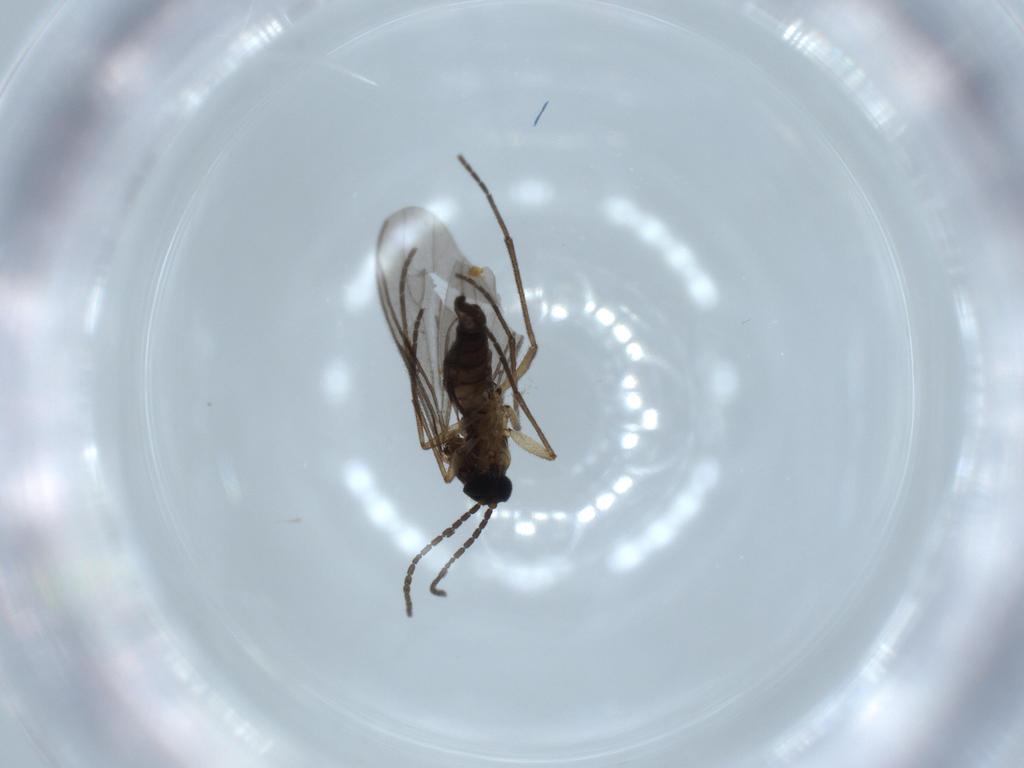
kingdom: Animalia
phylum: Arthropoda
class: Insecta
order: Diptera
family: Sciaridae
